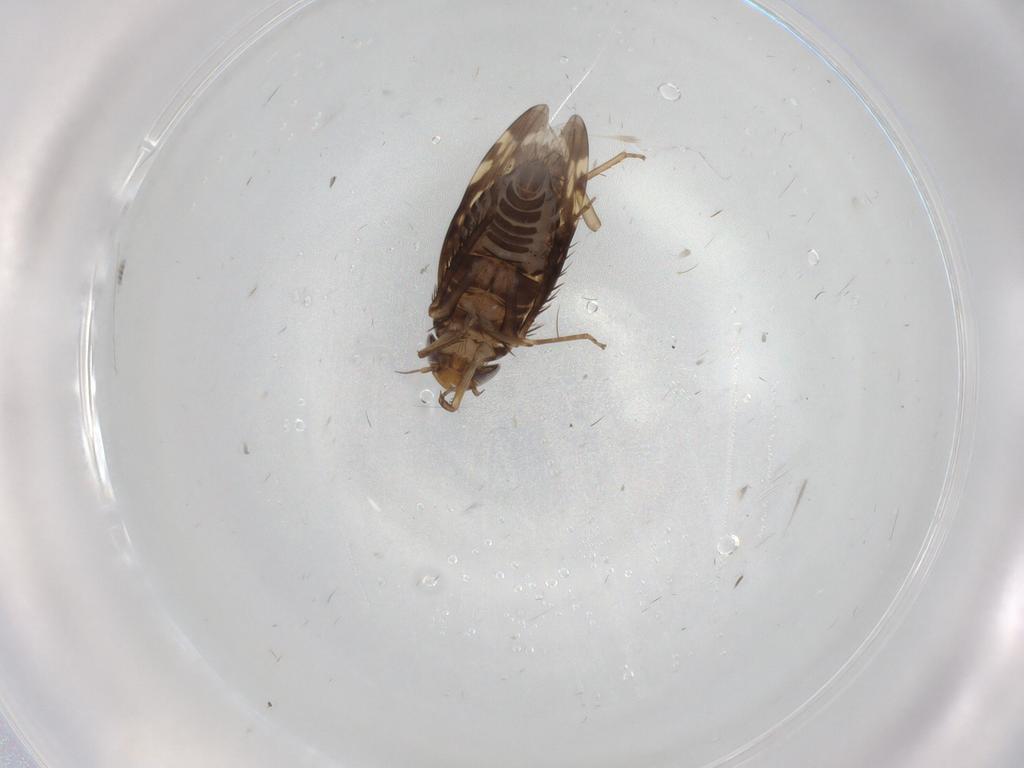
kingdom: Animalia
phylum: Arthropoda
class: Insecta
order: Hemiptera
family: Cicadellidae
